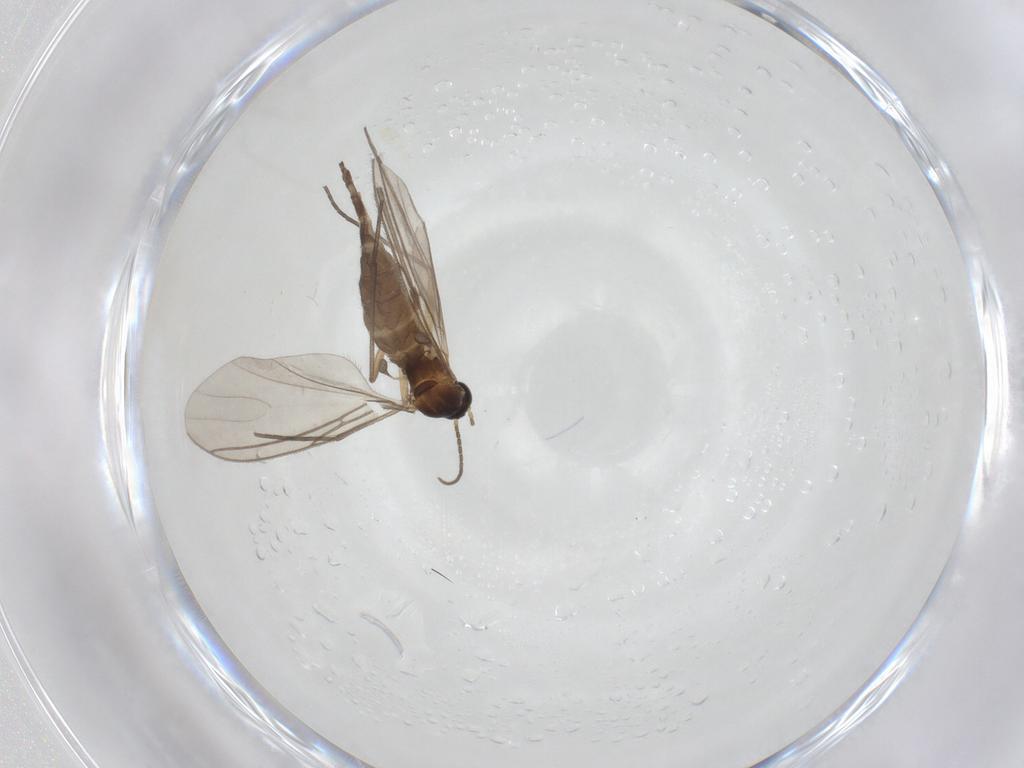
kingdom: Animalia
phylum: Arthropoda
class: Insecta
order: Diptera
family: Sciaridae
